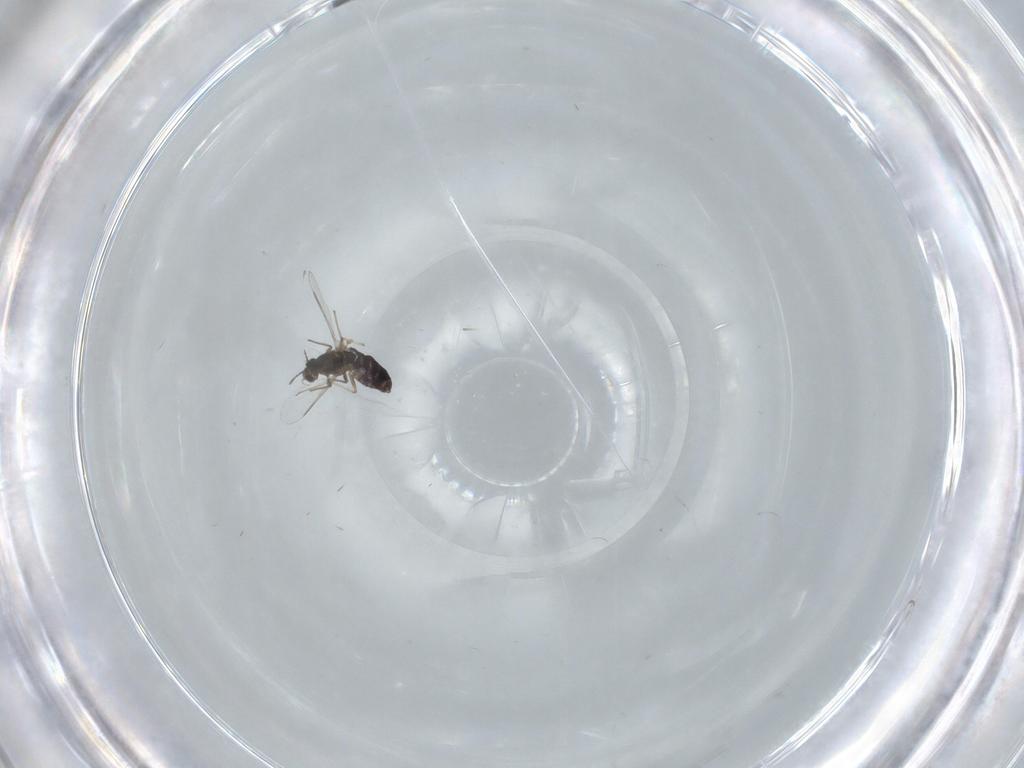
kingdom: Animalia
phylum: Arthropoda
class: Insecta
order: Diptera
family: Chironomidae
